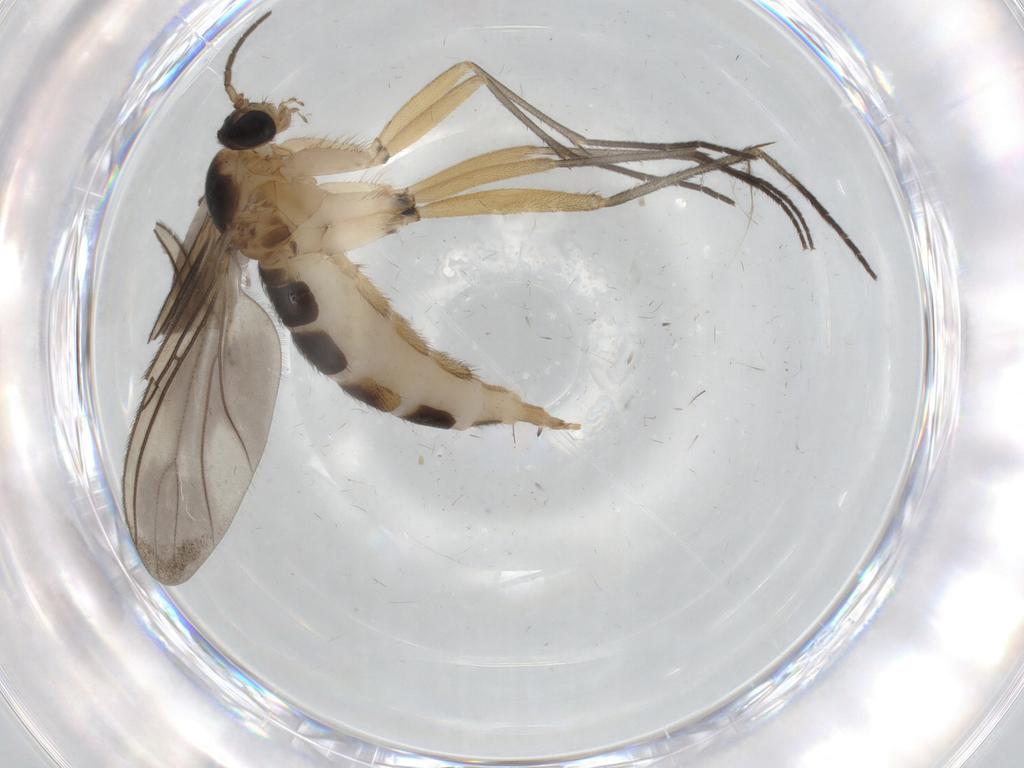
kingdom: Animalia
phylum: Arthropoda
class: Insecta
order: Diptera
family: Sciaridae
